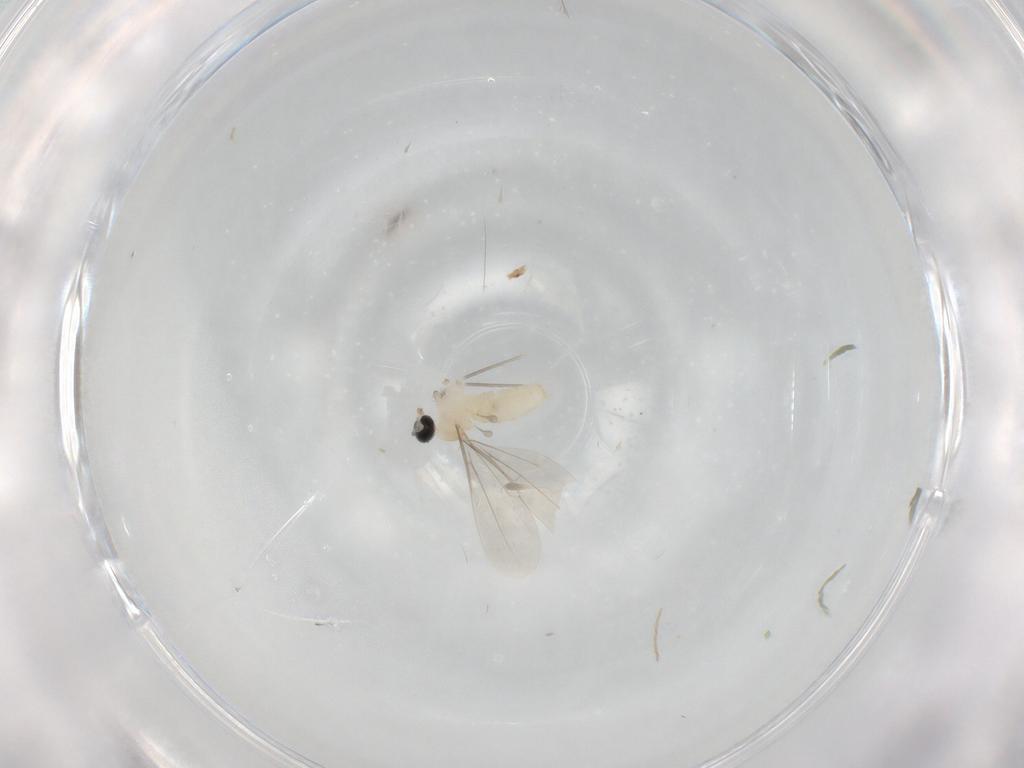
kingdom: Animalia
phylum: Arthropoda
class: Insecta
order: Diptera
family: Cecidomyiidae
